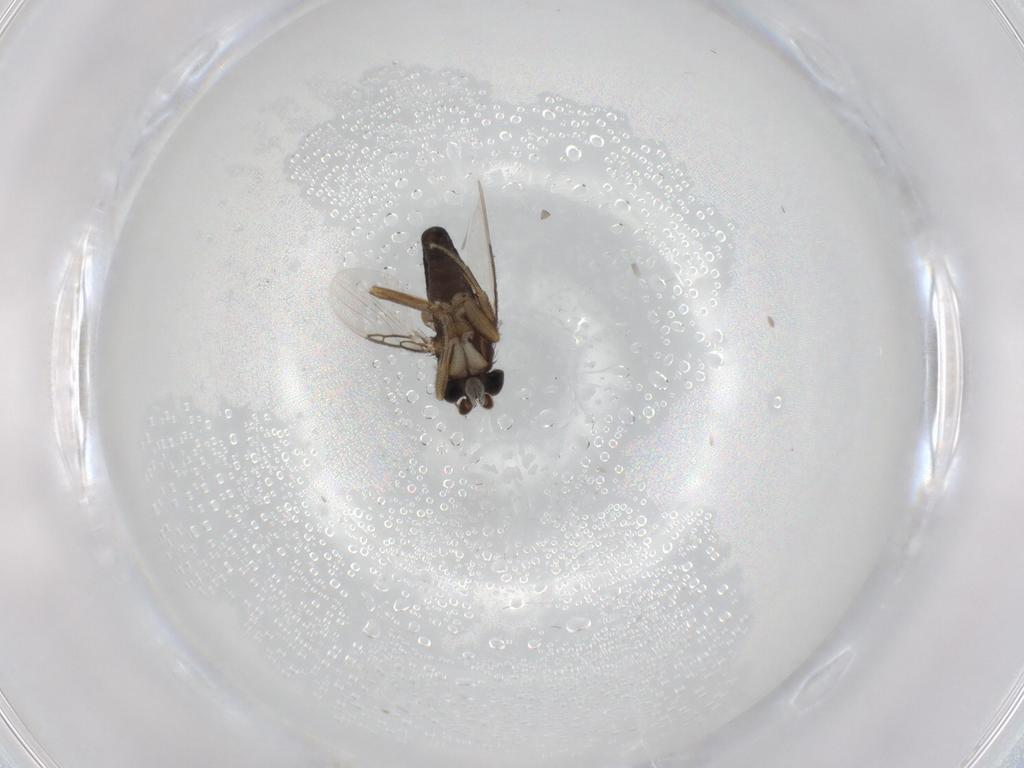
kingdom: Animalia
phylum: Arthropoda
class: Insecta
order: Diptera
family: Phoridae
